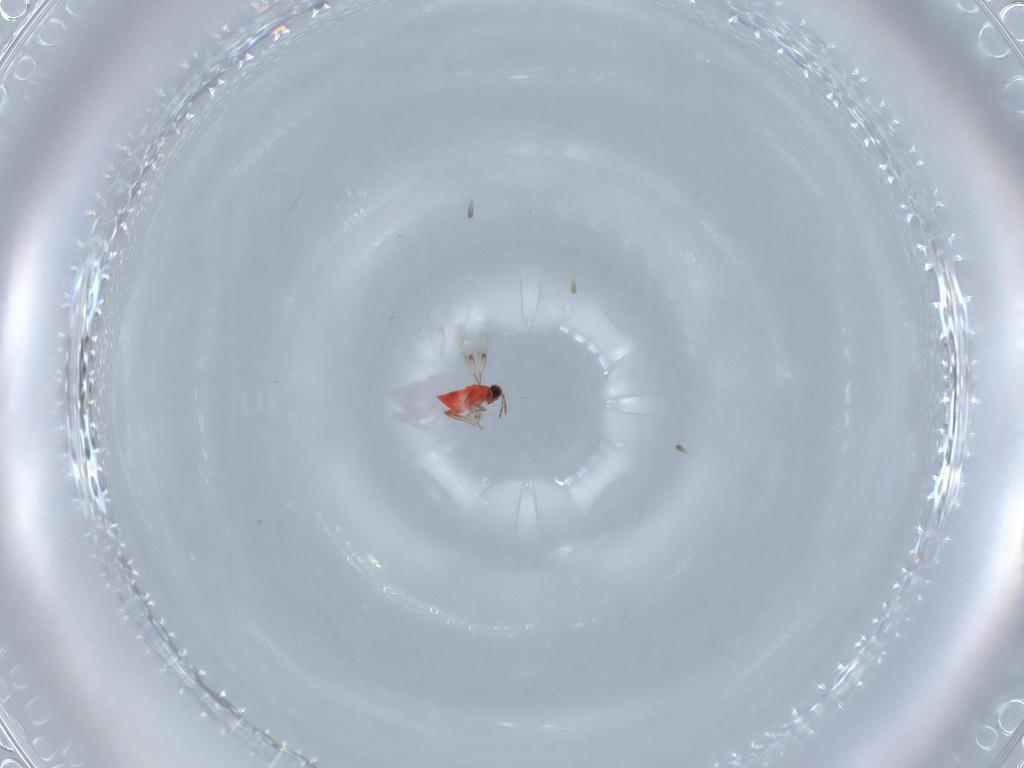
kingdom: Animalia
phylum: Arthropoda
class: Insecta
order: Hymenoptera
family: Trichogrammatidae
